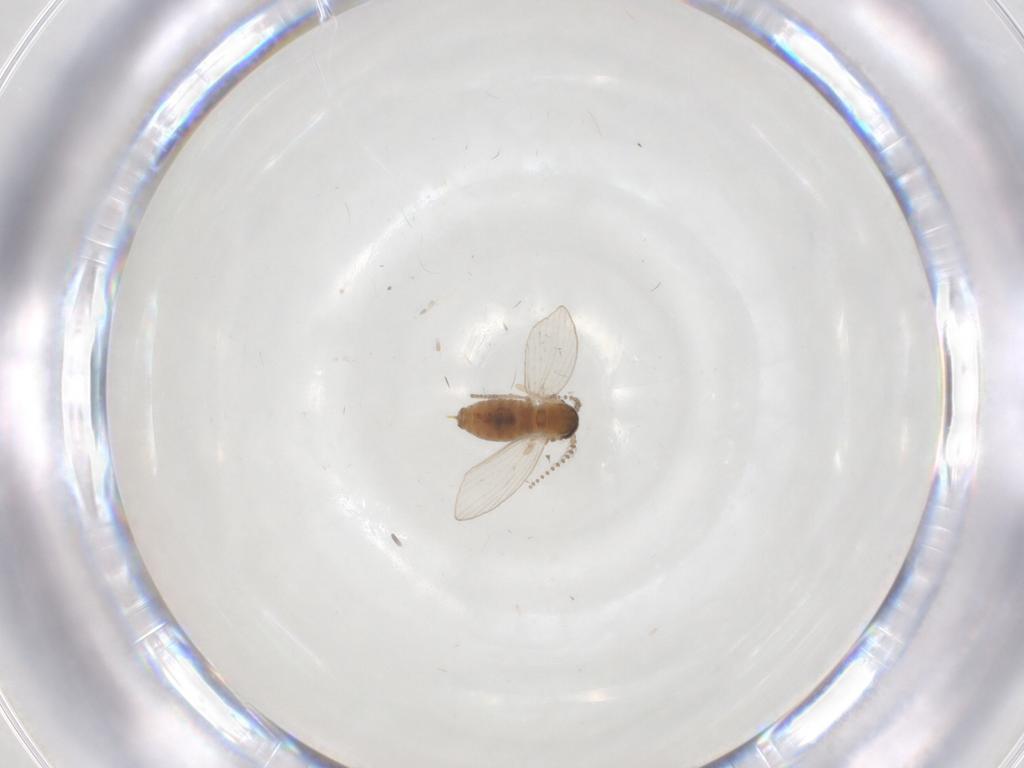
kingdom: Animalia
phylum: Arthropoda
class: Insecta
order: Diptera
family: Psychodidae
